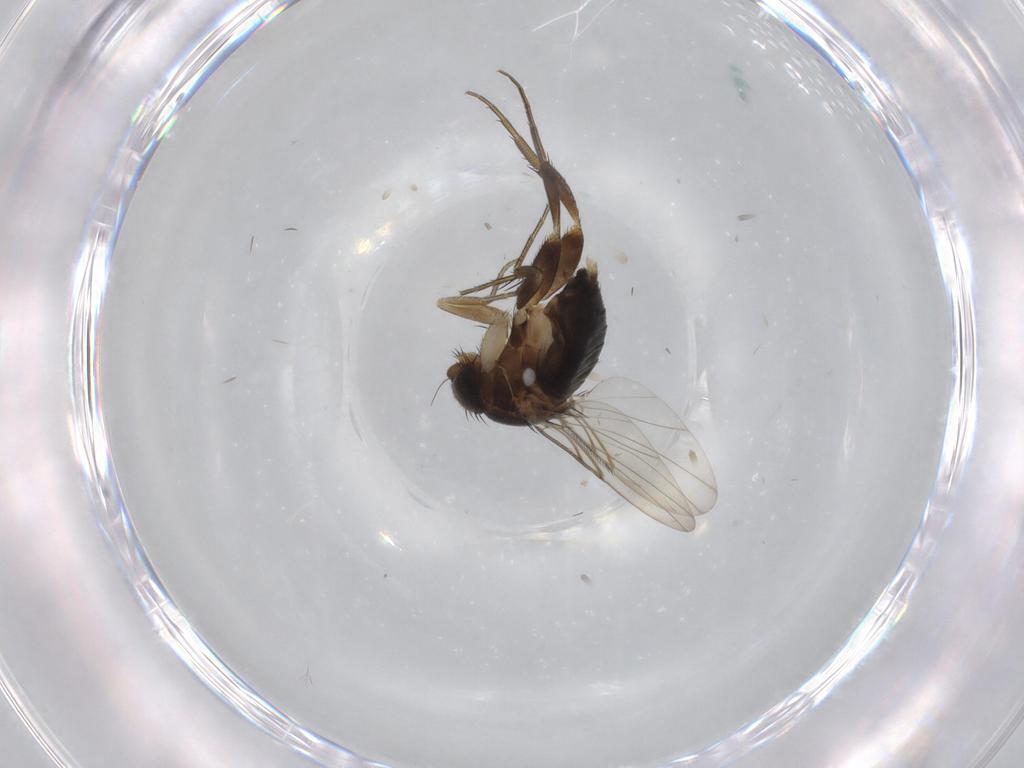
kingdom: Animalia
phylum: Arthropoda
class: Insecta
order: Diptera
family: Phoridae
